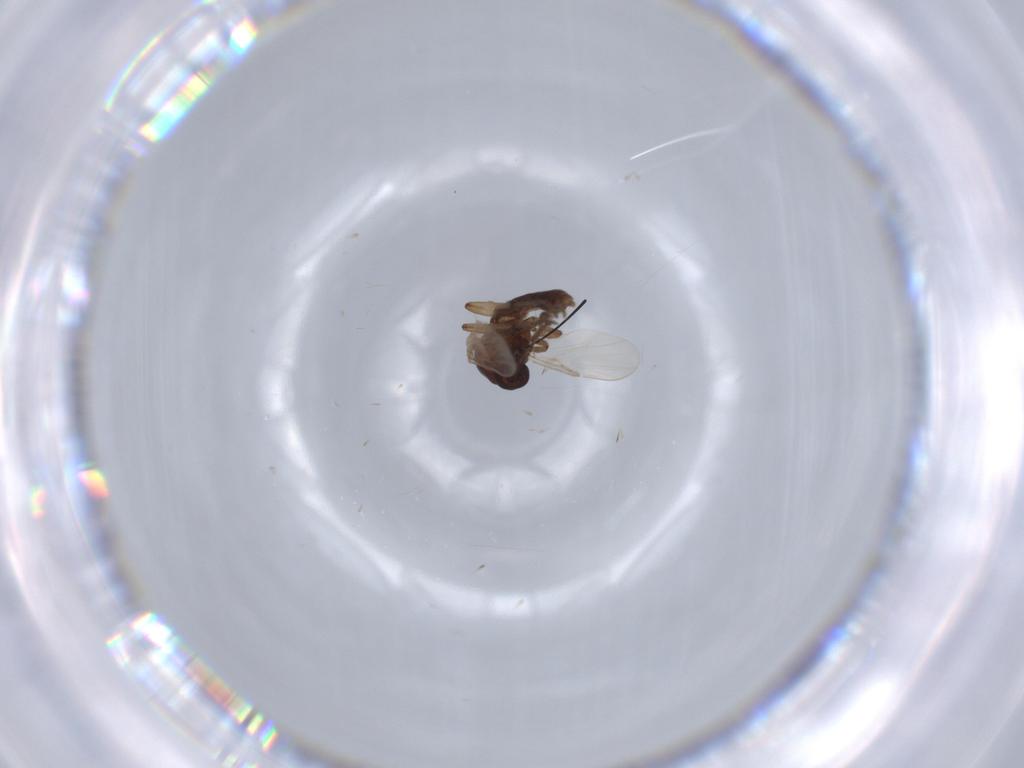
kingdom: Animalia
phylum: Arthropoda
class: Insecta
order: Diptera
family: Ceratopogonidae
